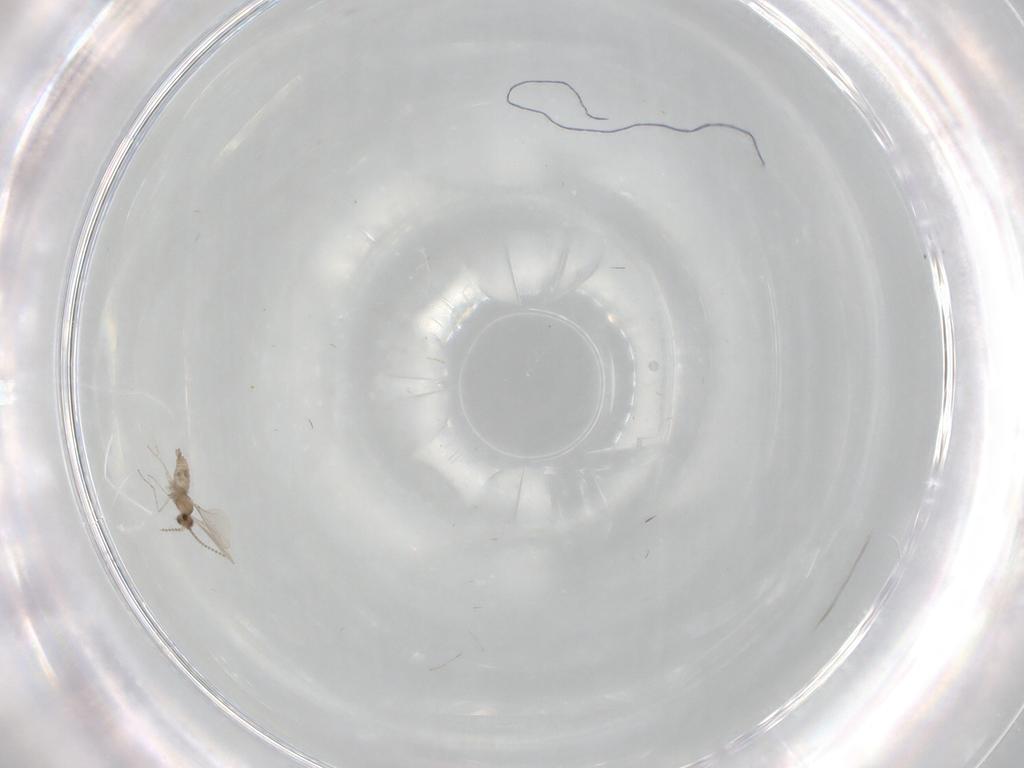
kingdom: Animalia
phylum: Arthropoda
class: Insecta
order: Diptera
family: Cecidomyiidae
